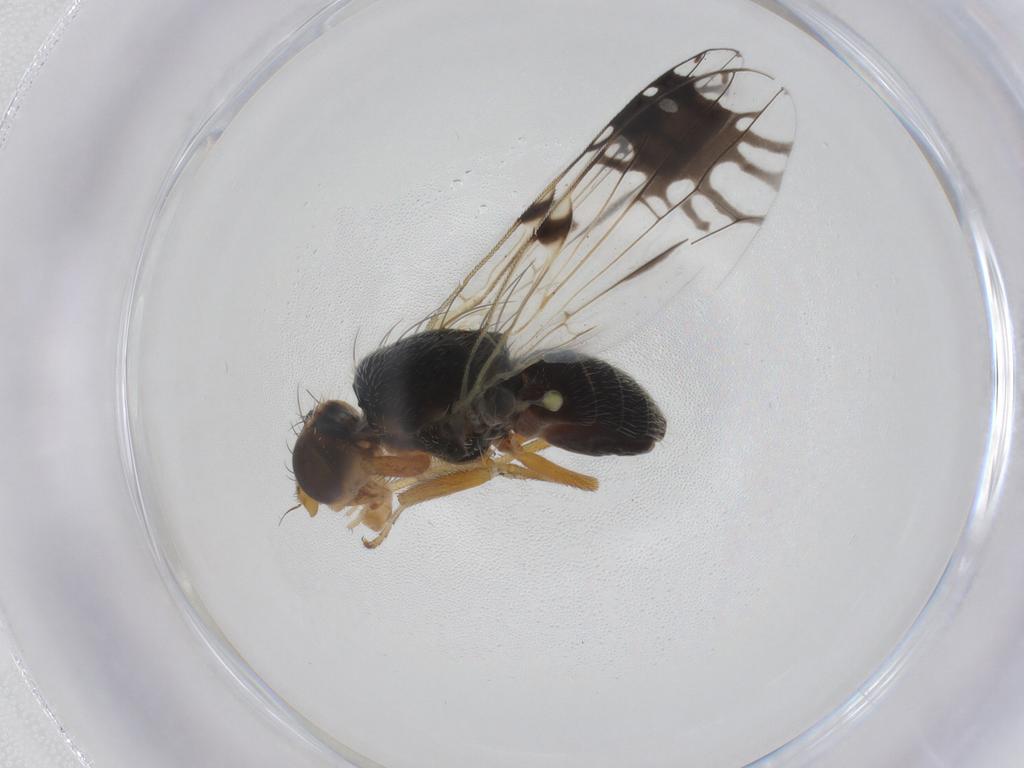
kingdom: Animalia
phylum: Arthropoda
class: Insecta
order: Diptera
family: Tephritidae
